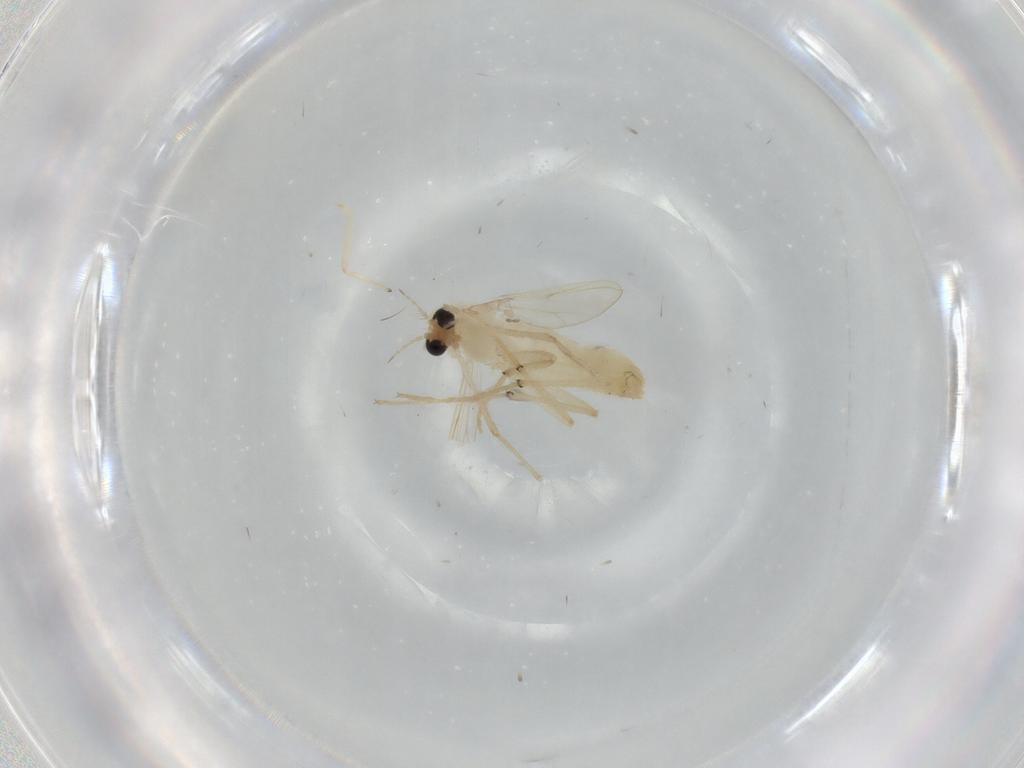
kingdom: Animalia
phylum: Arthropoda
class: Insecta
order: Diptera
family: Chironomidae
